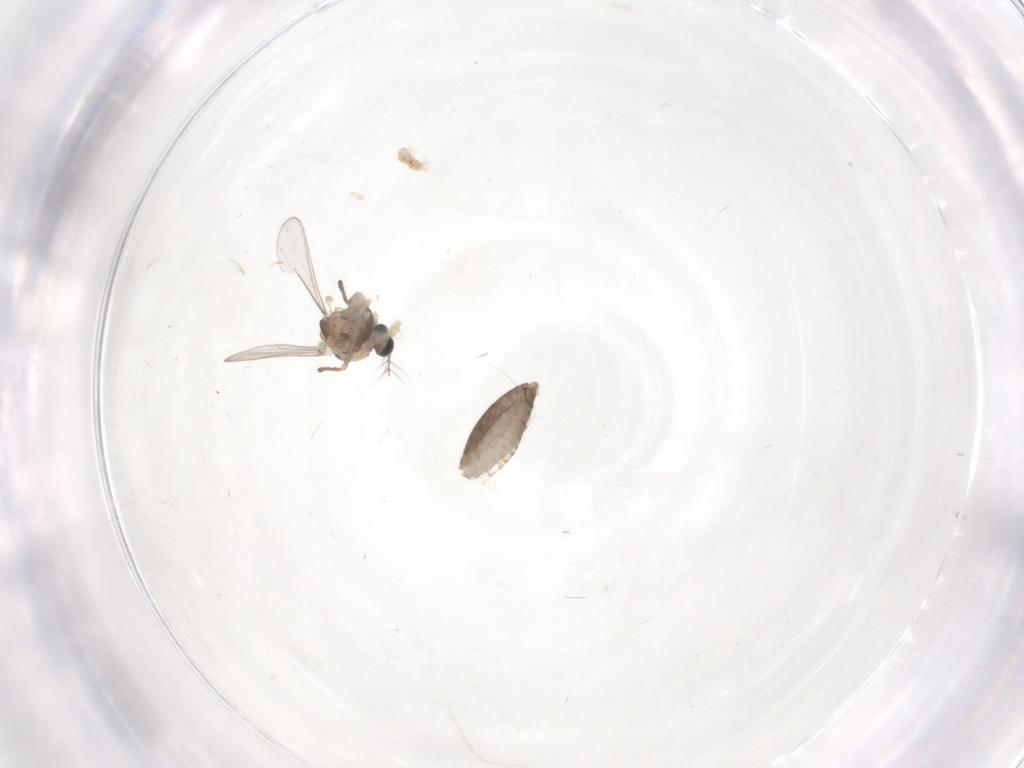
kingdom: Animalia
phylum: Arthropoda
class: Insecta
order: Diptera
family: Chironomidae
